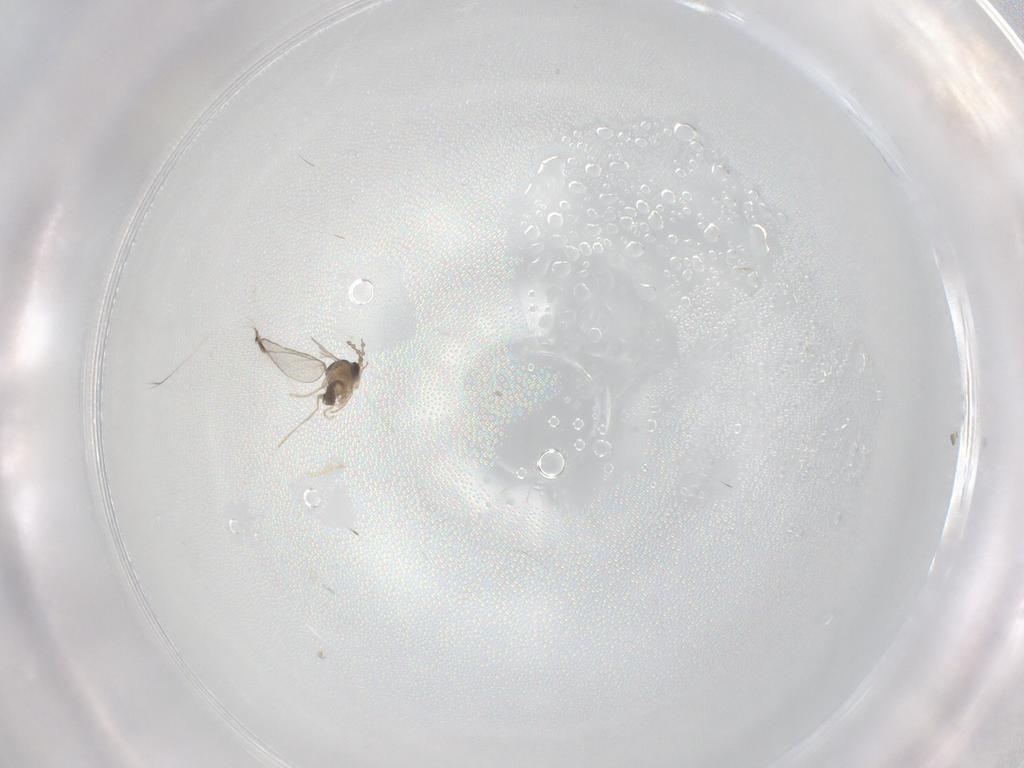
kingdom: Animalia
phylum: Arthropoda
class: Insecta
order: Diptera
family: Cecidomyiidae
